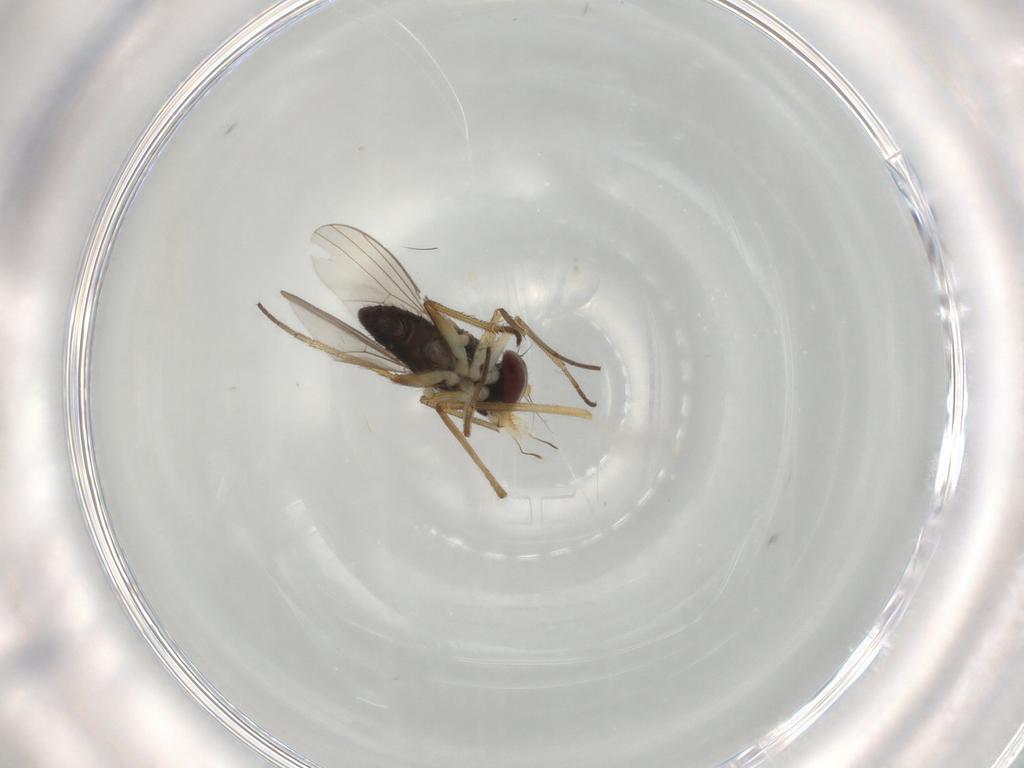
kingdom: Animalia
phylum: Arthropoda
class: Insecta
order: Diptera
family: Dolichopodidae
